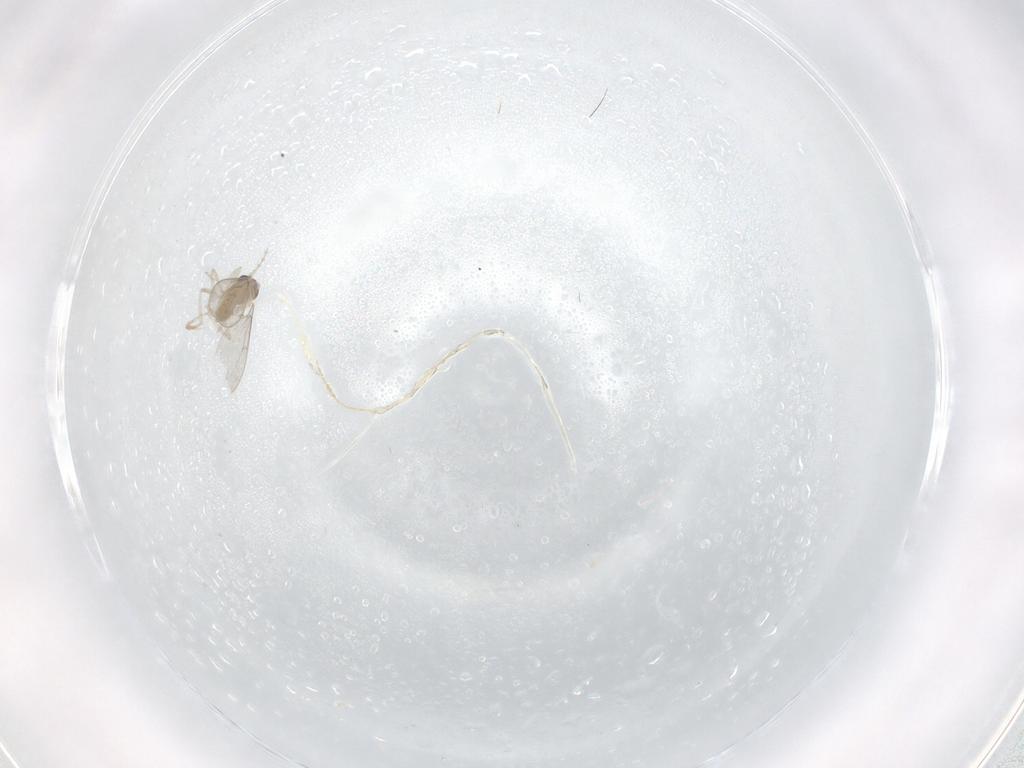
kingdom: Animalia
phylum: Arthropoda
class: Insecta
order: Diptera
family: Cecidomyiidae
